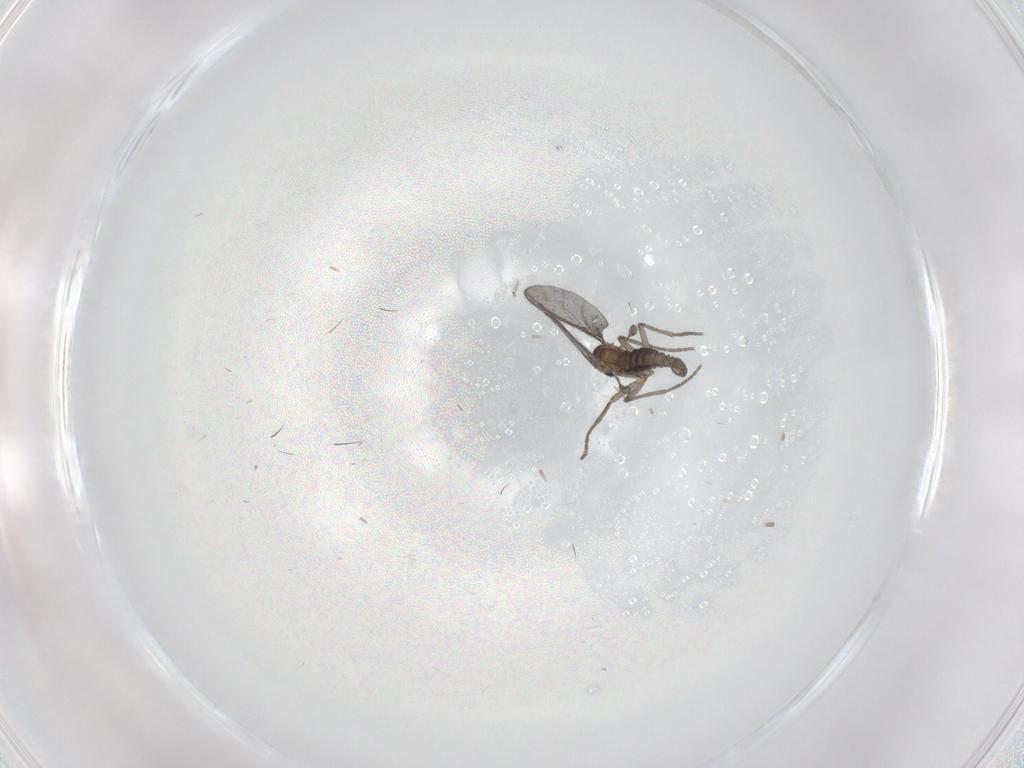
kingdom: Animalia
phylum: Arthropoda
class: Insecta
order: Diptera
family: Sciaridae
